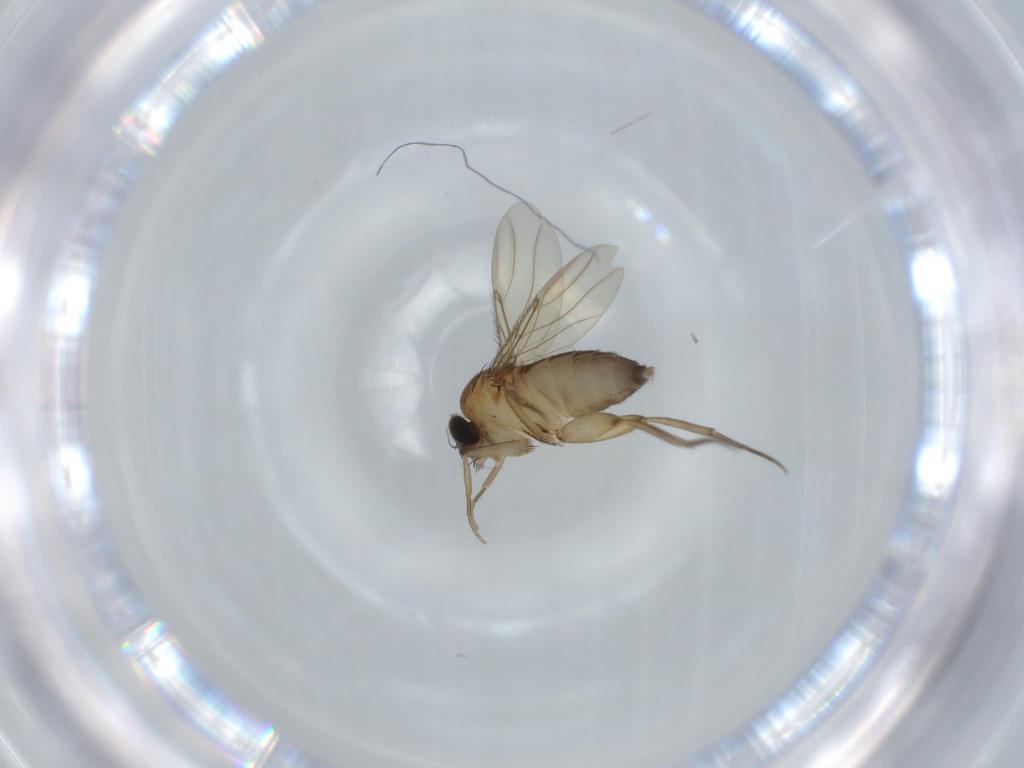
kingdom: Animalia
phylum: Arthropoda
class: Insecta
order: Diptera
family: Phoridae
